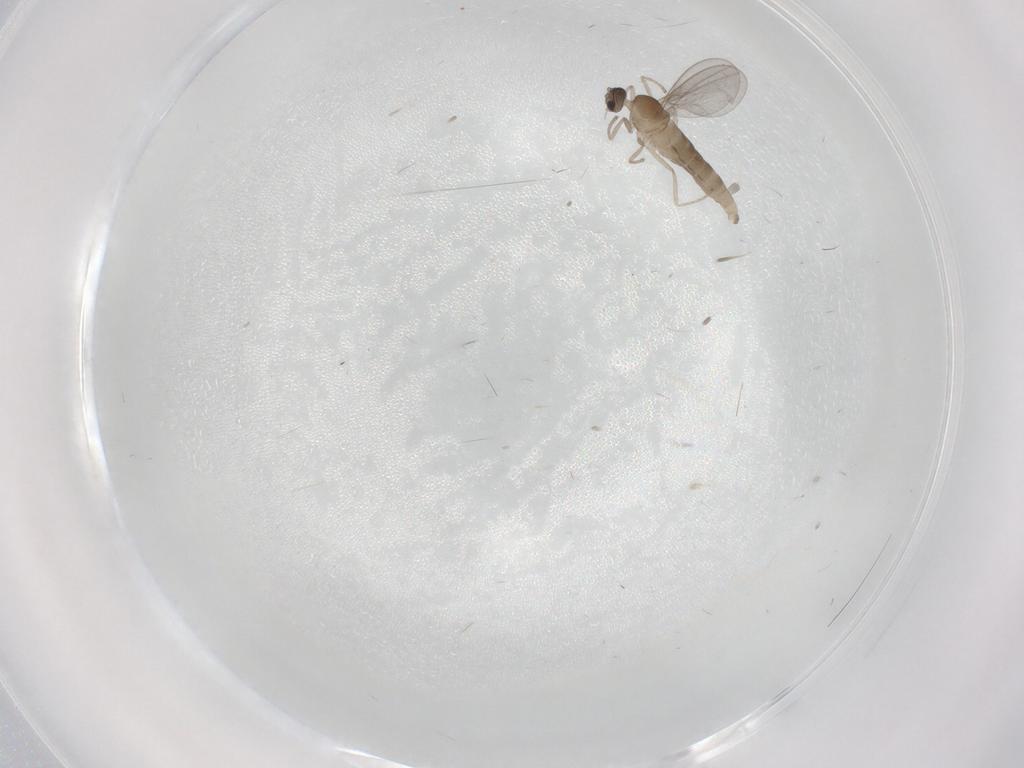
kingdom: Animalia
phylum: Arthropoda
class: Insecta
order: Diptera
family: Cecidomyiidae
